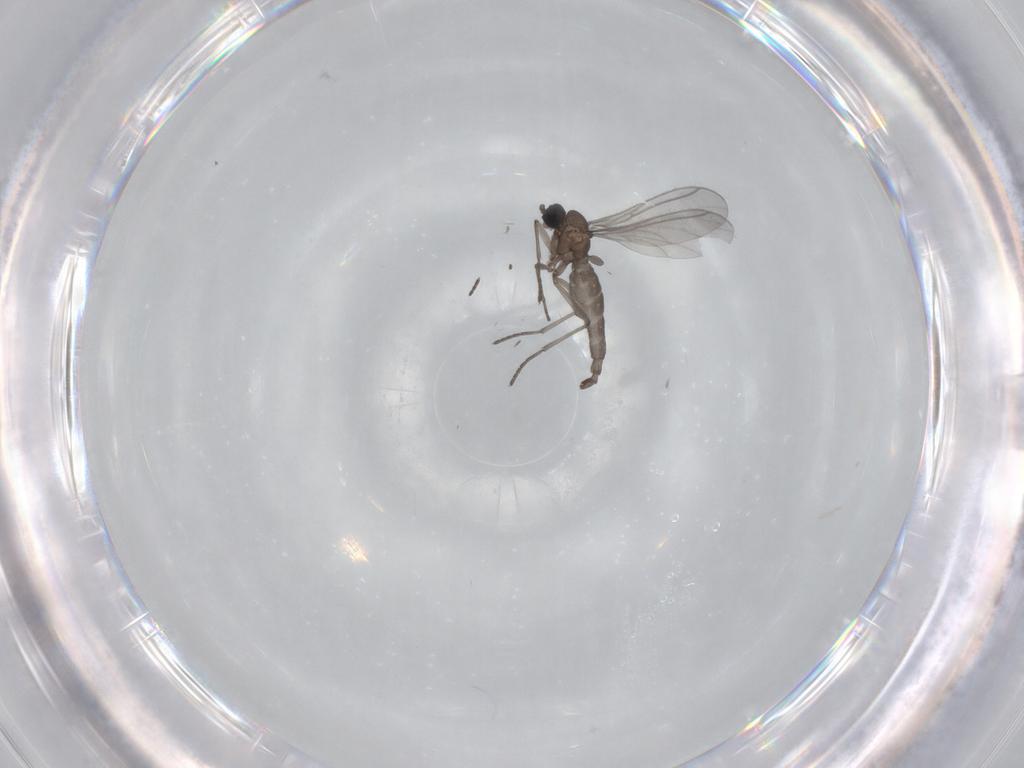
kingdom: Animalia
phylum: Arthropoda
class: Insecta
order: Diptera
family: Sciaridae
